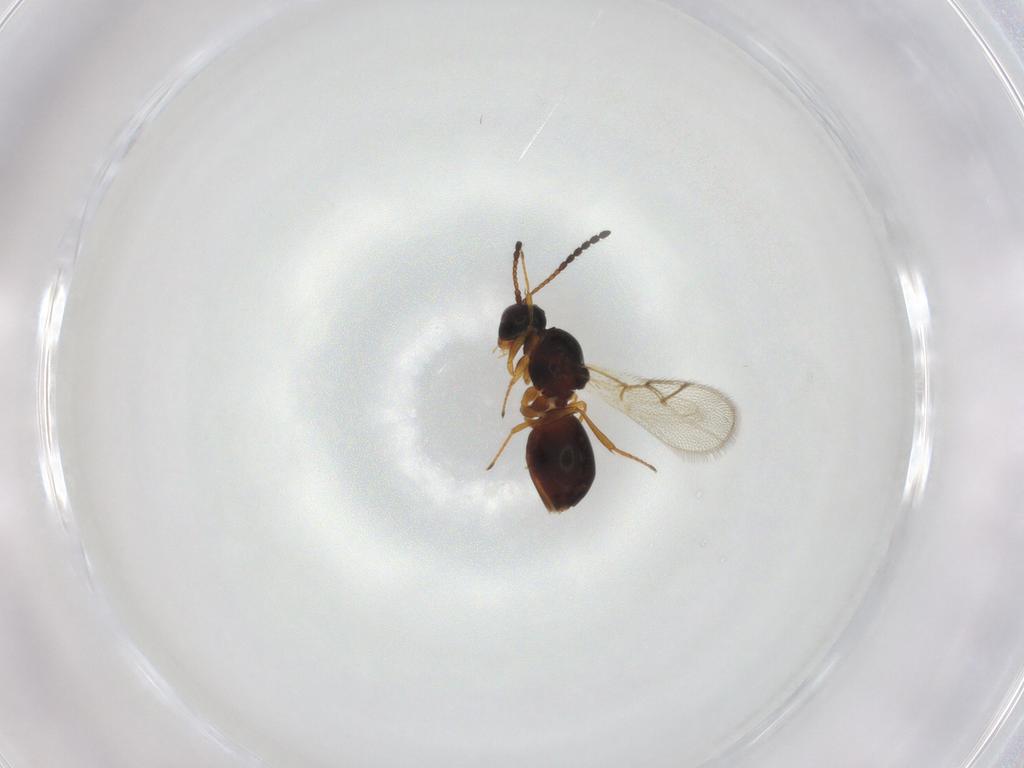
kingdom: Animalia
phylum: Arthropoda
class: Insecta
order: Hymenoptera
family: Figitidae
